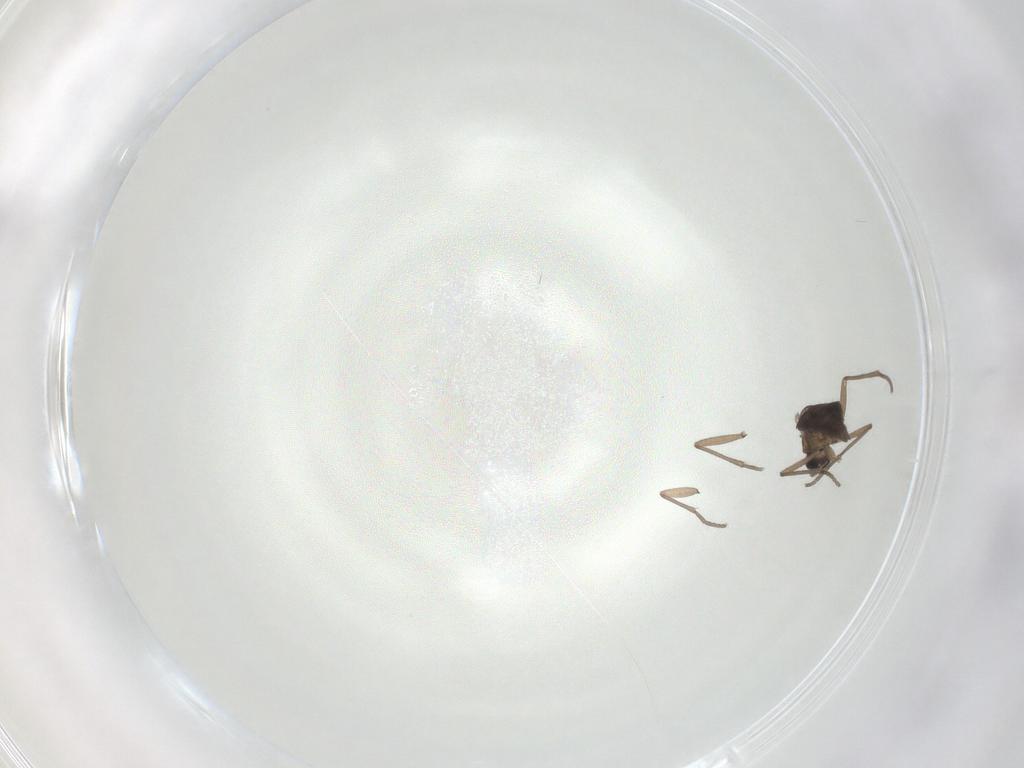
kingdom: Animalia
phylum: Arthropoda
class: Insecta
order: Diptera
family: Sciaridae
